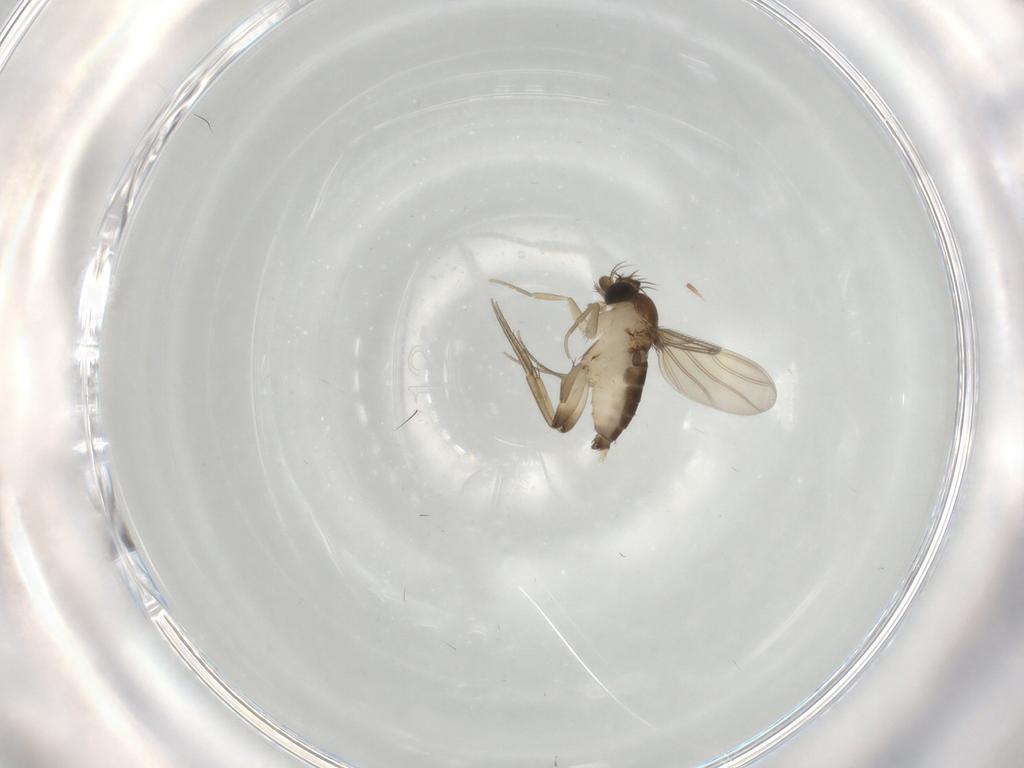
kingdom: Animalia
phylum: Arthropoda
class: Insecta
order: Diptera
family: Phoridae
